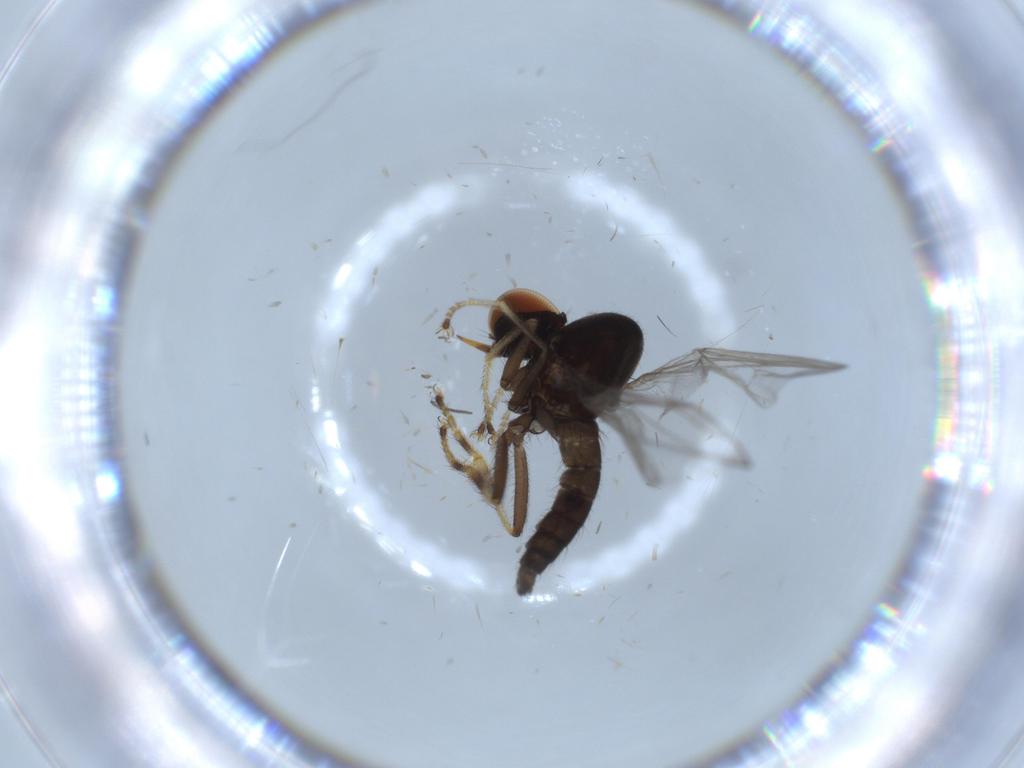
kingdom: Animalia
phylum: Arthropoda
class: Insecta
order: Diptera
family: Hybotidae
